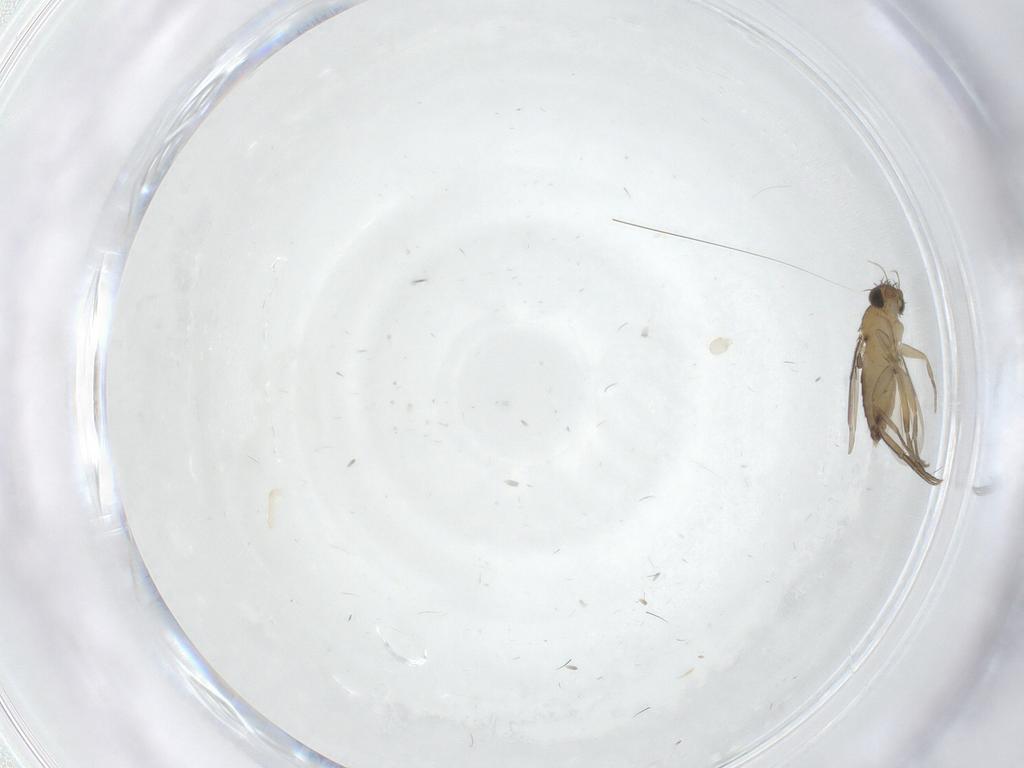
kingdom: Animalia
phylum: Arthropoda
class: Insecta
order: Diptera
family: Phoridae
